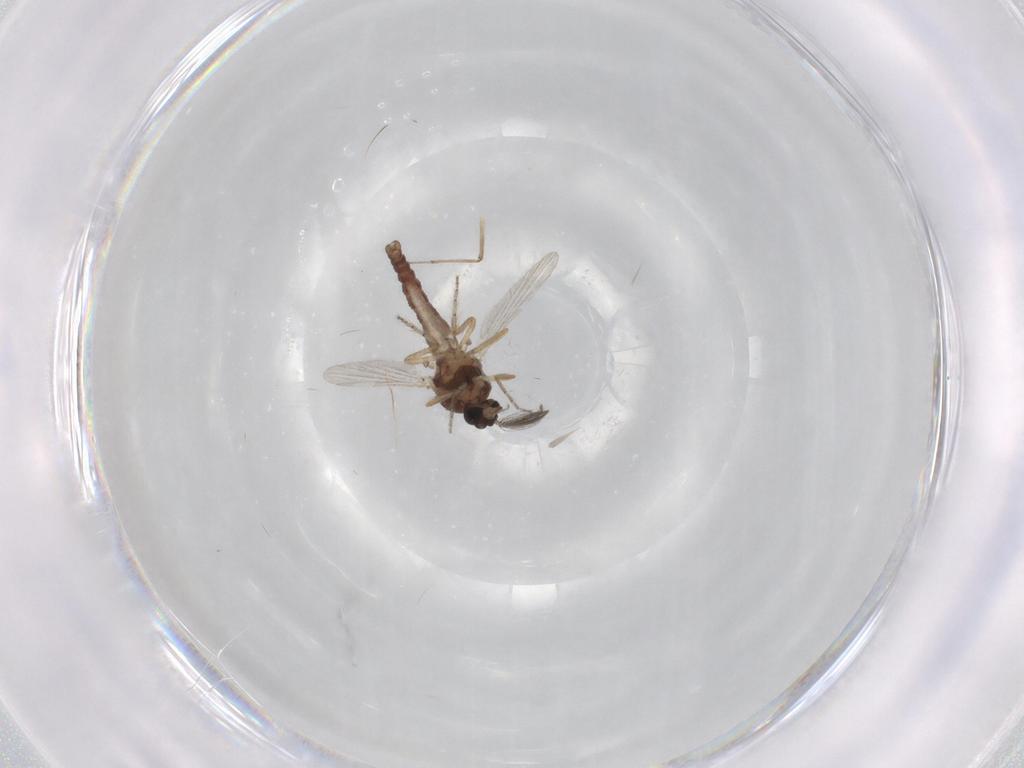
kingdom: Animalia
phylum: Arthropoda
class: Insecta
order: Diptera
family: Ceratopogonidae
